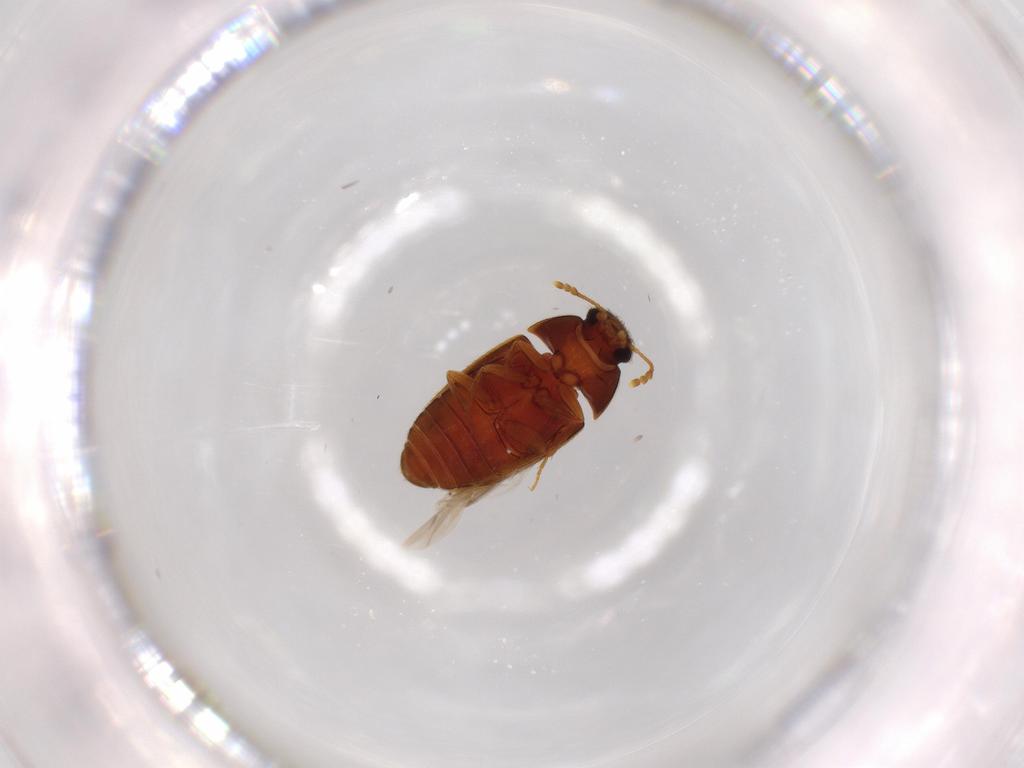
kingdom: Animalia
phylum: Arthropoda
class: Insecta
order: Coleoptera
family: Mycetophagidae
